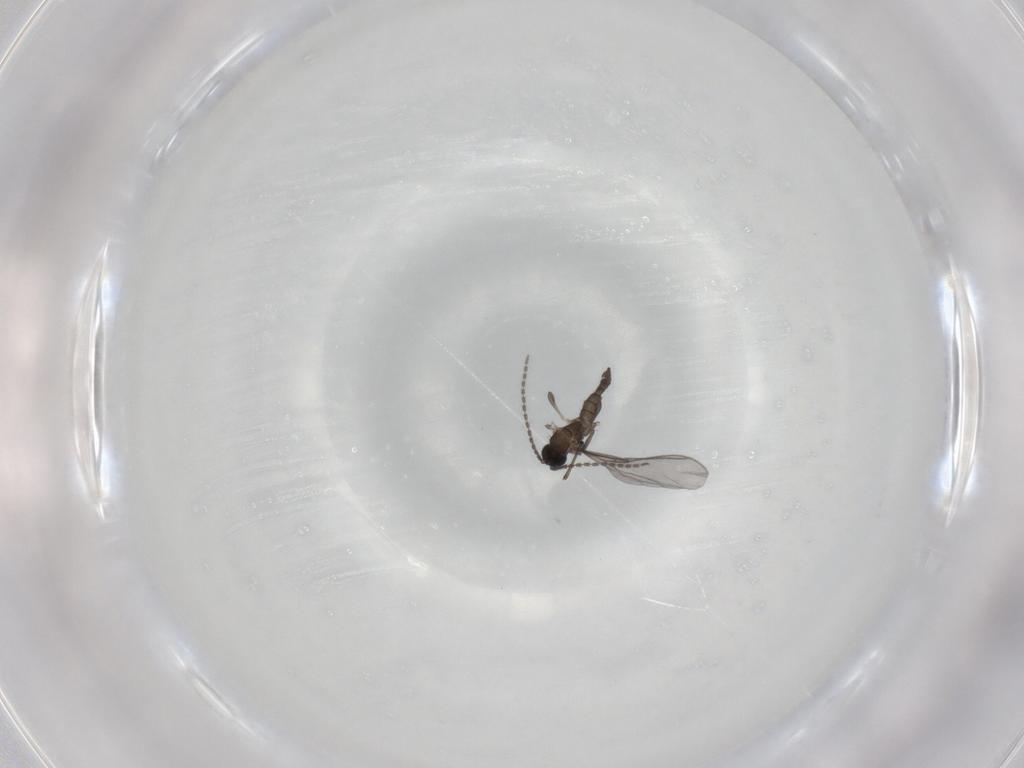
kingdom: Animalia
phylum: Arthropoda
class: Insecta
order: Diptera
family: Sciaridae
